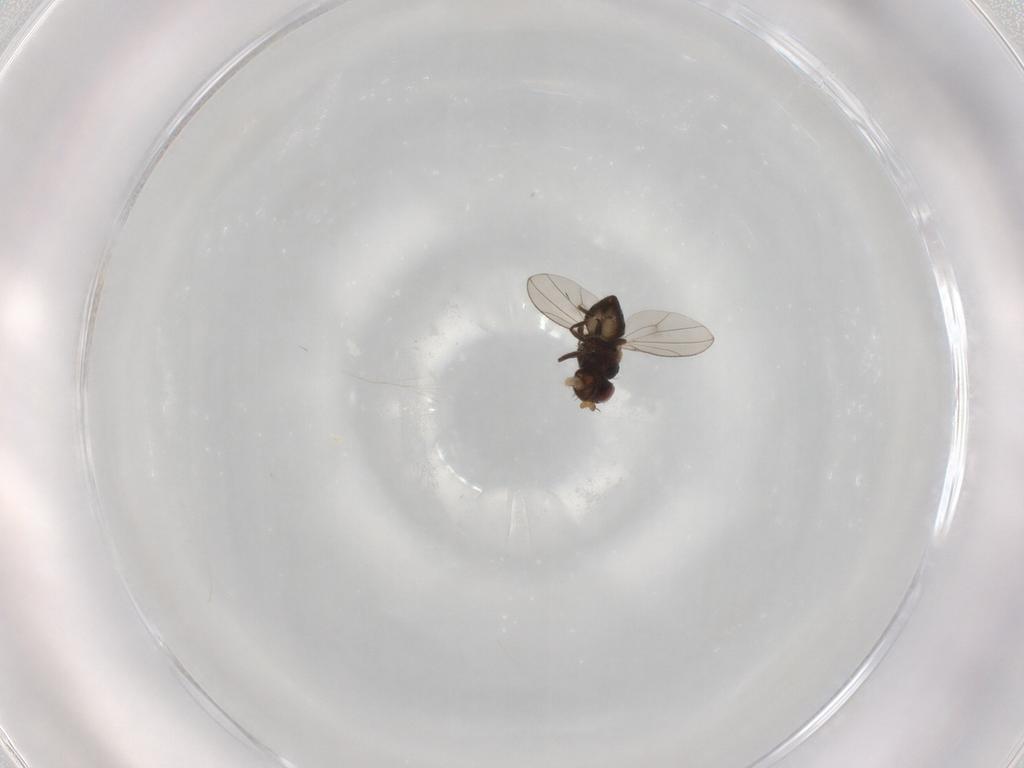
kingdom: Animalia
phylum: Arthropoda
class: Insecta
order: Diptera
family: Ephydridae
